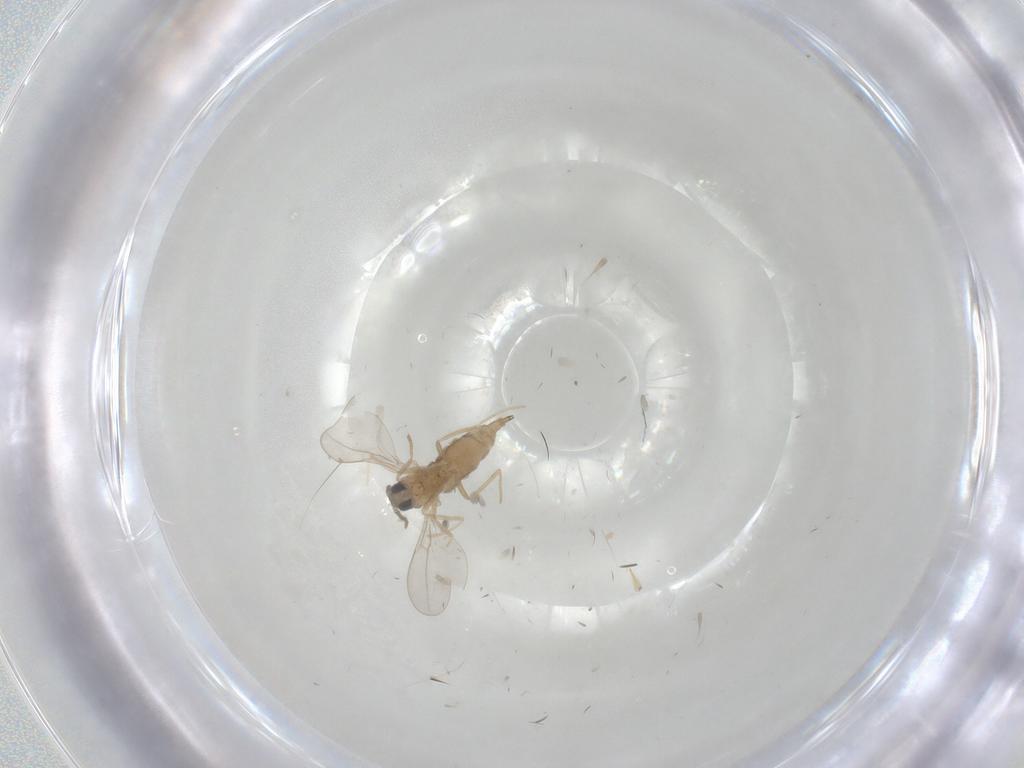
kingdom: Animalia
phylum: Arthropoda
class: Insecta
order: Diptera
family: Cecidomyiidae
